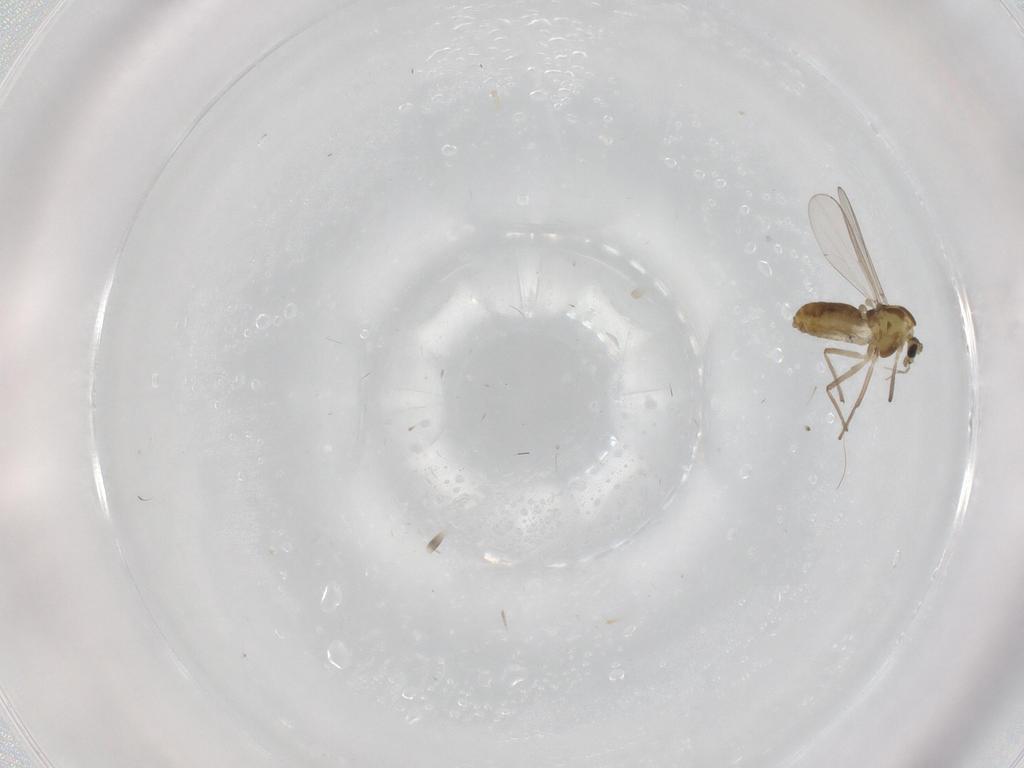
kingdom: Animalia
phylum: Arthropoda
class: Insecta
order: Diptera
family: Chironomidae
